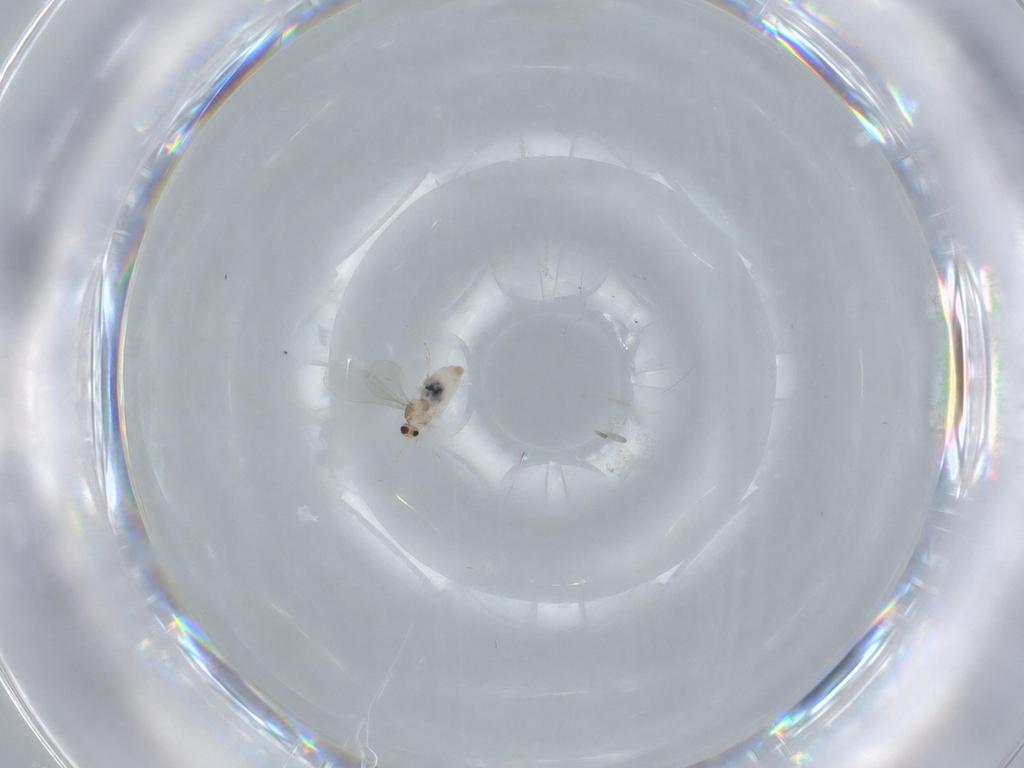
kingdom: Animalia
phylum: Arthropoda
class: Insecta
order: Diptera
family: Cecidomyiidae
